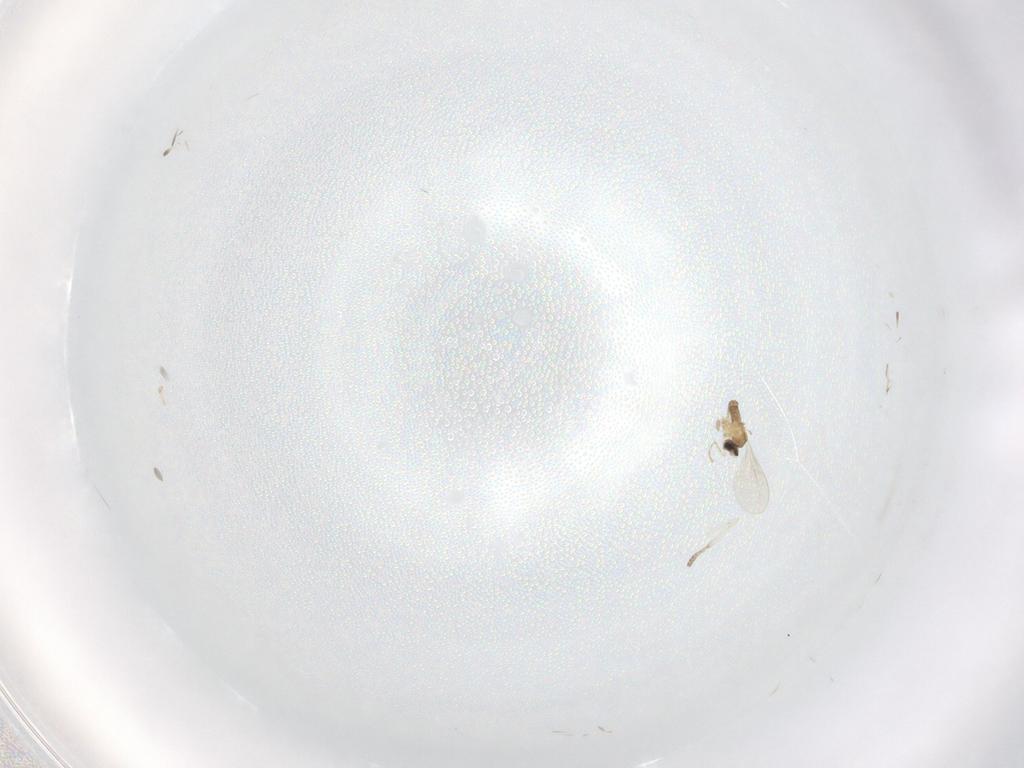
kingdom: Animalia
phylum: Arthropoda
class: Insecta
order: Diptera
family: Cecidomyiidae
